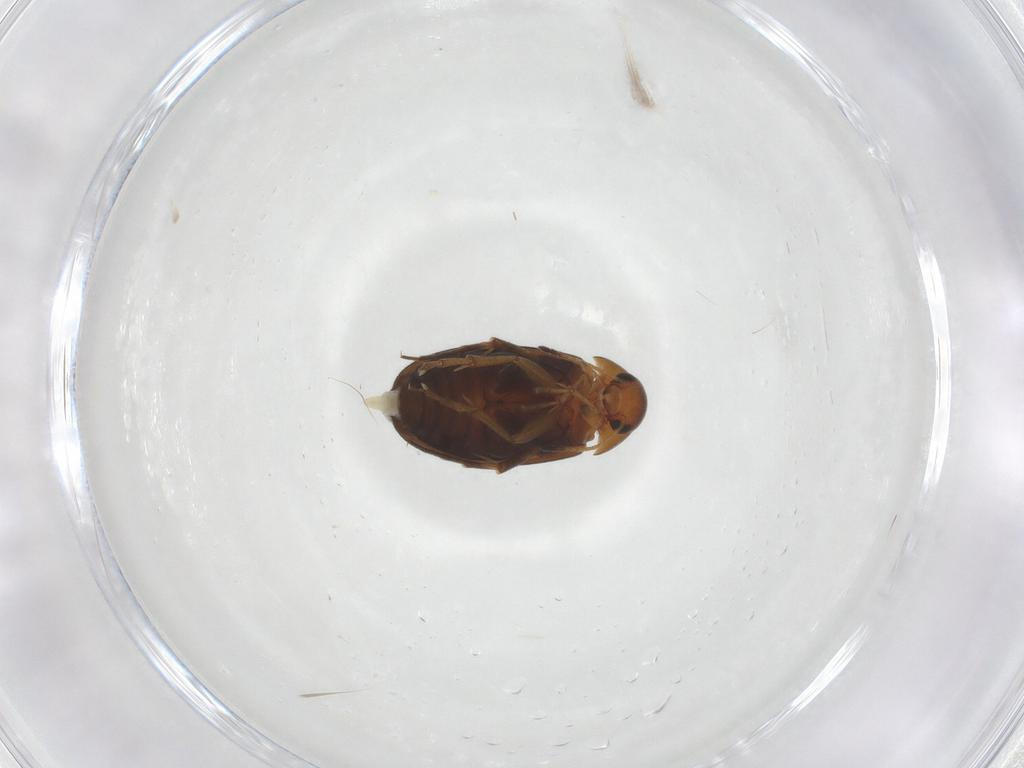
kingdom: Animalia
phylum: Arthropoda
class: Insecta
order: Coleoptera
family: Scraptiidae
